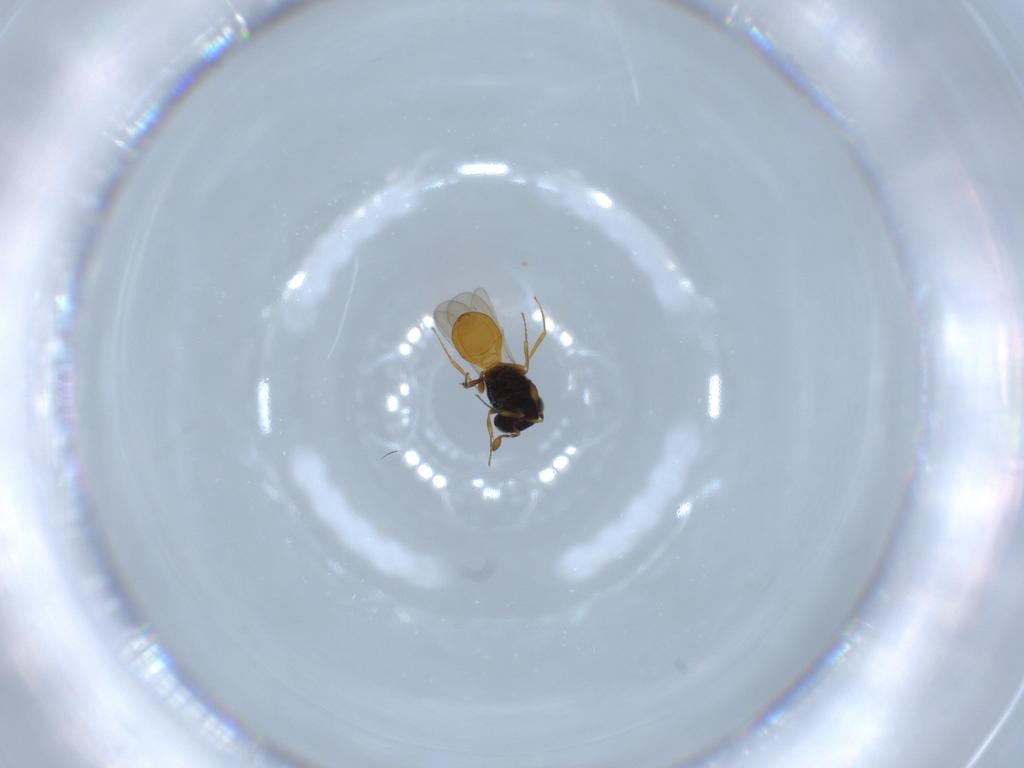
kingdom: Animalia
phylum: Arthropoda
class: Insecta
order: Hymenoptera
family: Scelionidae
